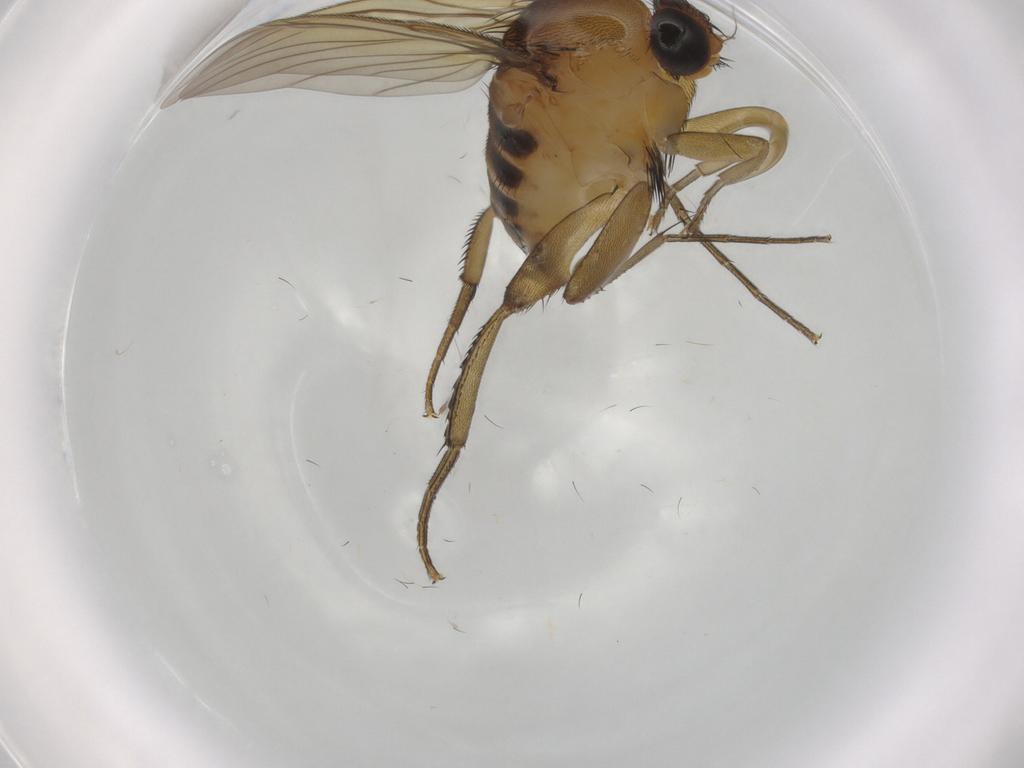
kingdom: Animalia
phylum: Arthropoda
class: Insecta
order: Diptera
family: Phoridae
